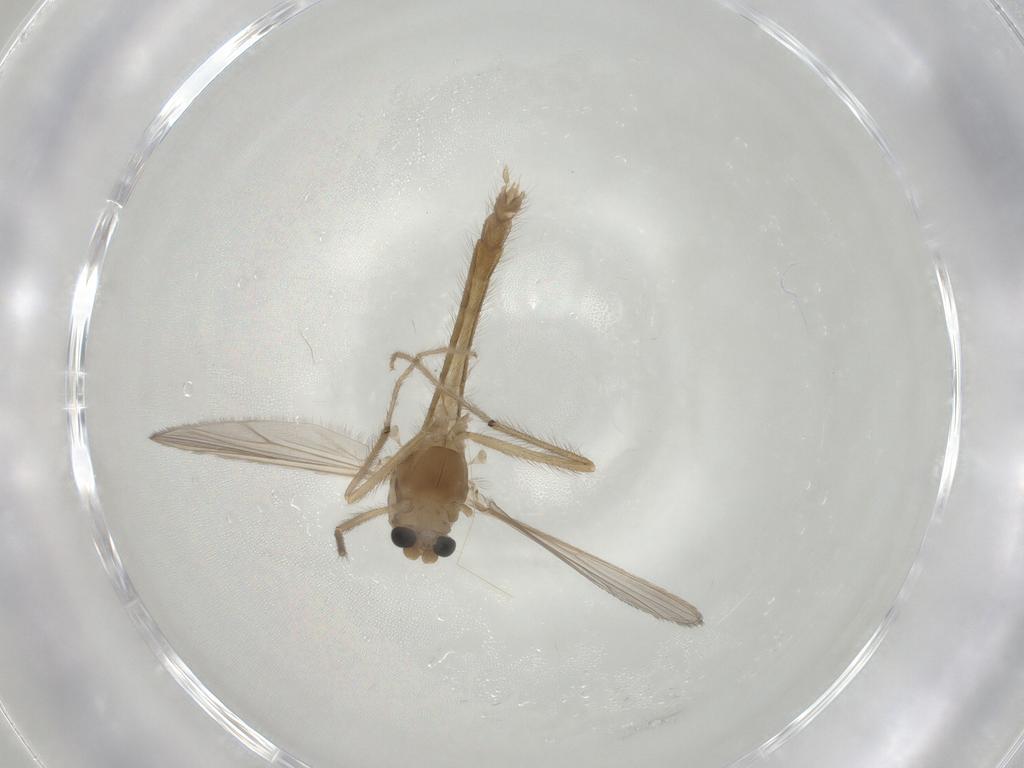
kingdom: Animalia
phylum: Arthropoda
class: Insecta
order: Diptera
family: Chironomidae
